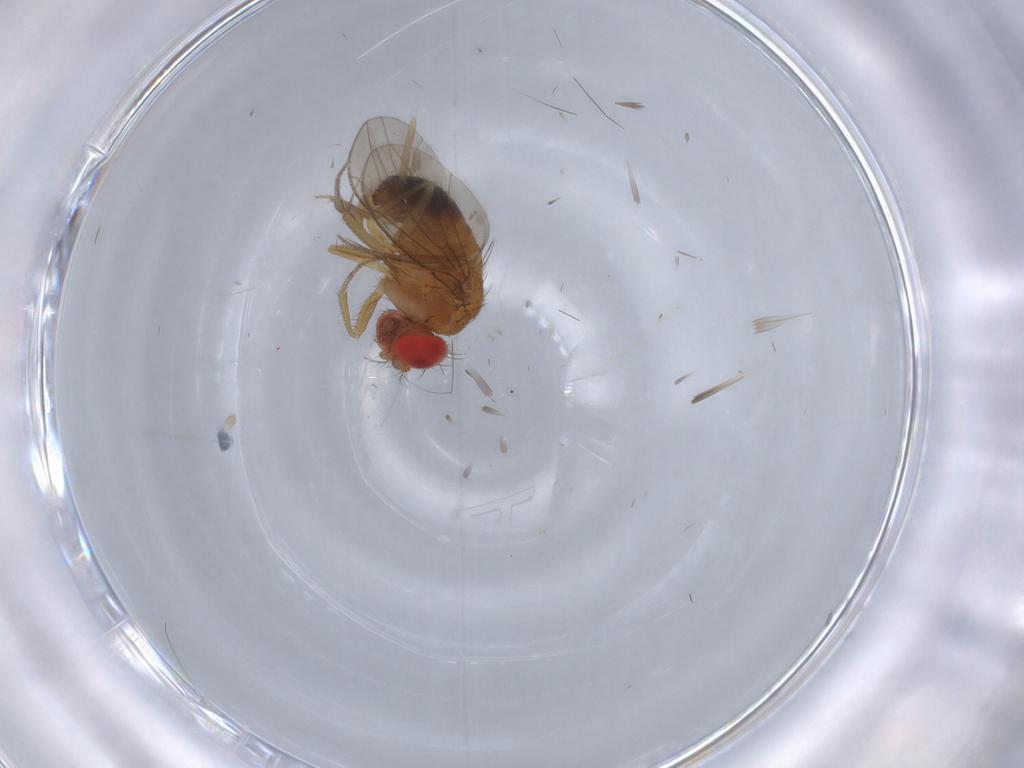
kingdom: Animalia
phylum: Arthropoda
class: Insecta
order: Diptera
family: Drosophilidae
